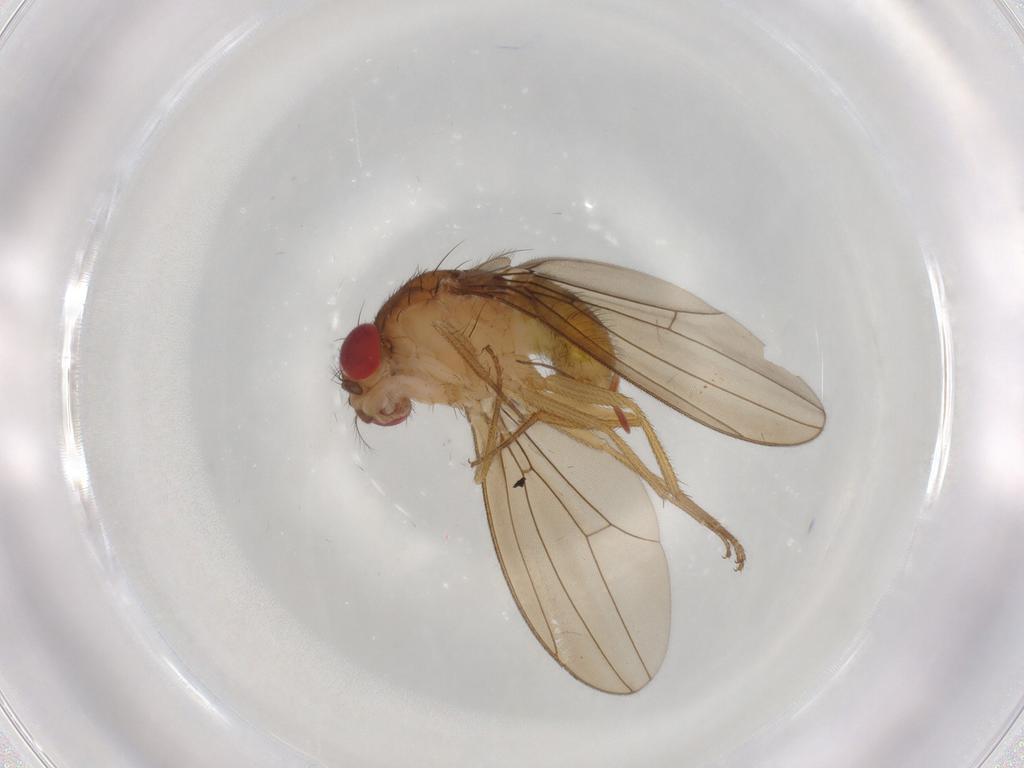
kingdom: Animalia
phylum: Arthropoda
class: Insecta
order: Diptera
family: Drosophilidae
